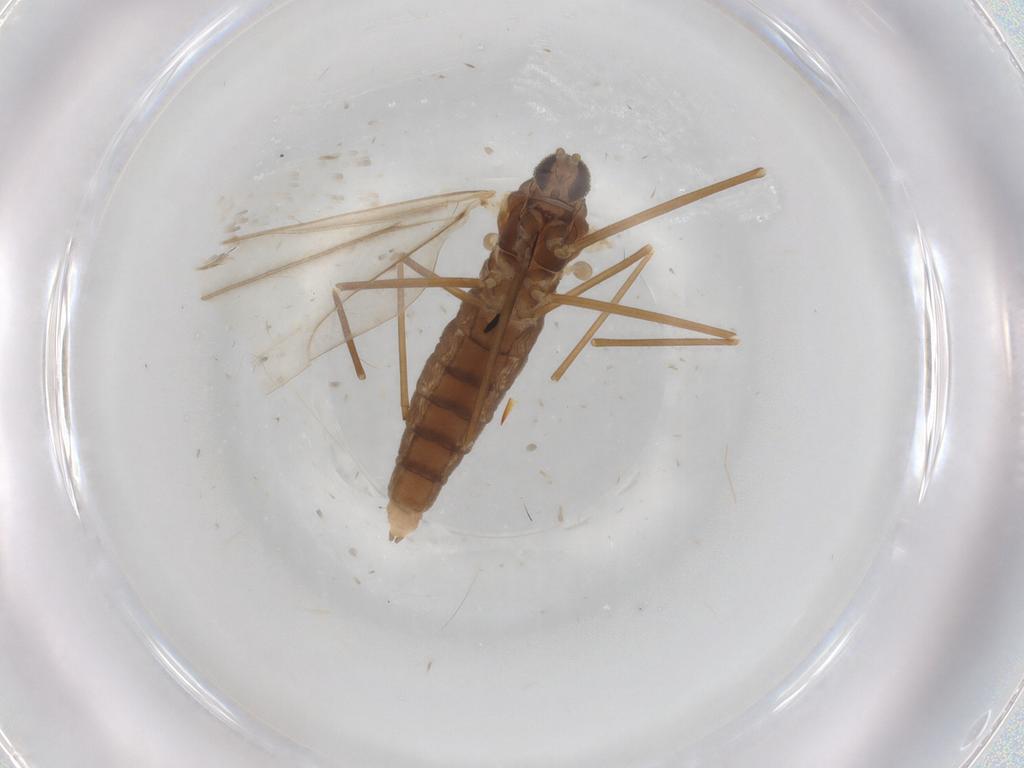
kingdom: Animalia
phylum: Arthropoda
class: Insecta
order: Diptera
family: Cecidomyiidae
